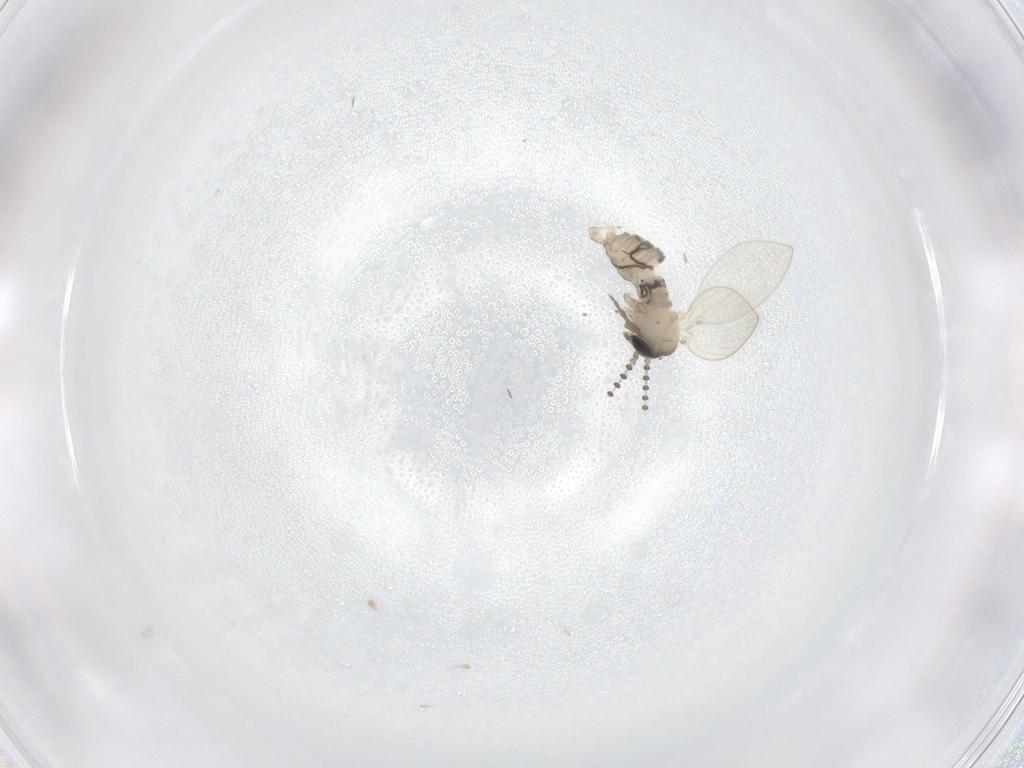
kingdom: Animalia
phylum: Arthropoda
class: Insecta
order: Diptera
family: Psychodidae
